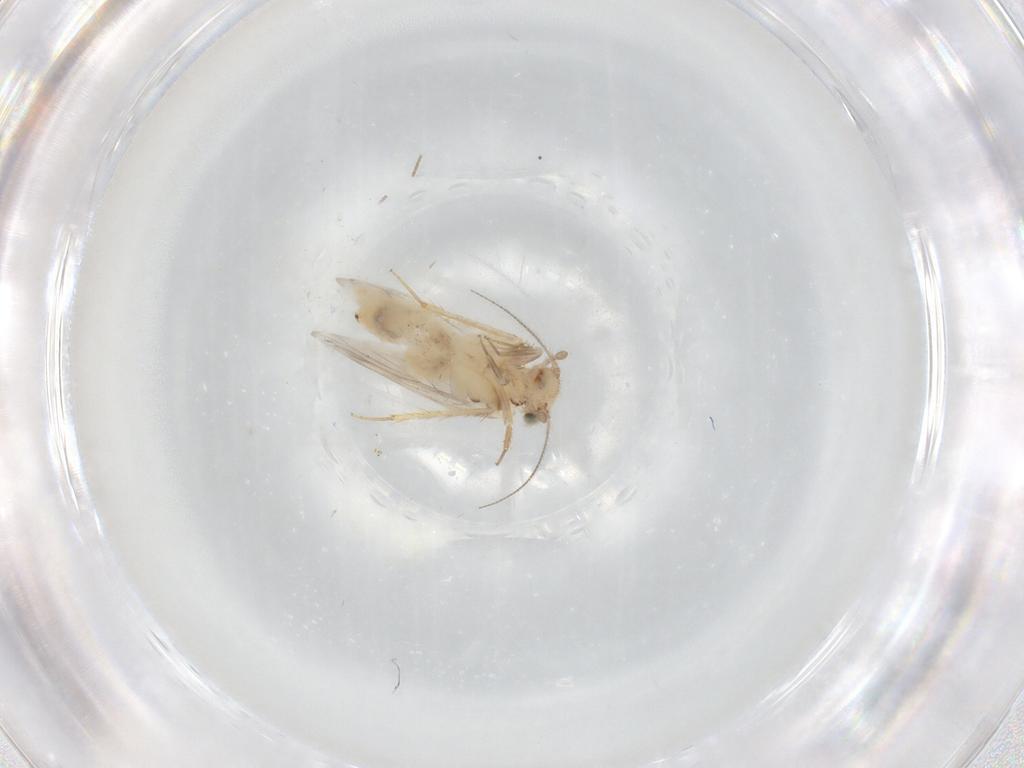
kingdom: Animalia
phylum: Arthropoda
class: Insecta
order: Psocodea
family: Lepidopsocidae
